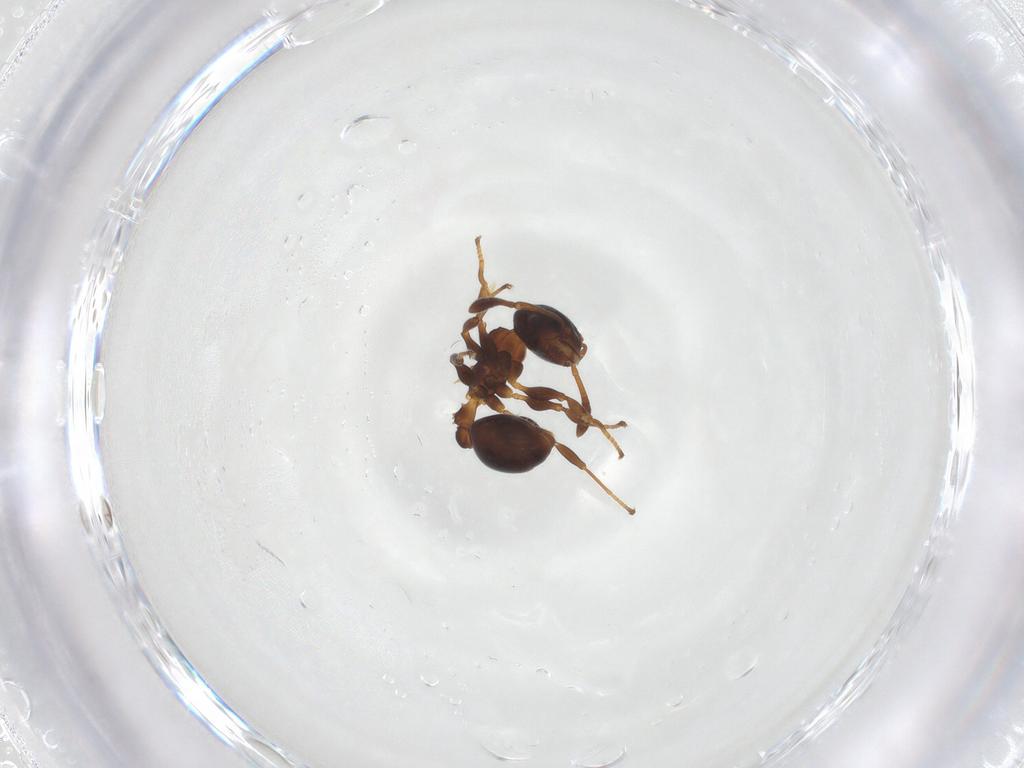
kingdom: Animalia
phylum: Arthropoda
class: Insecta
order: Hymenoptera
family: Formicidae
